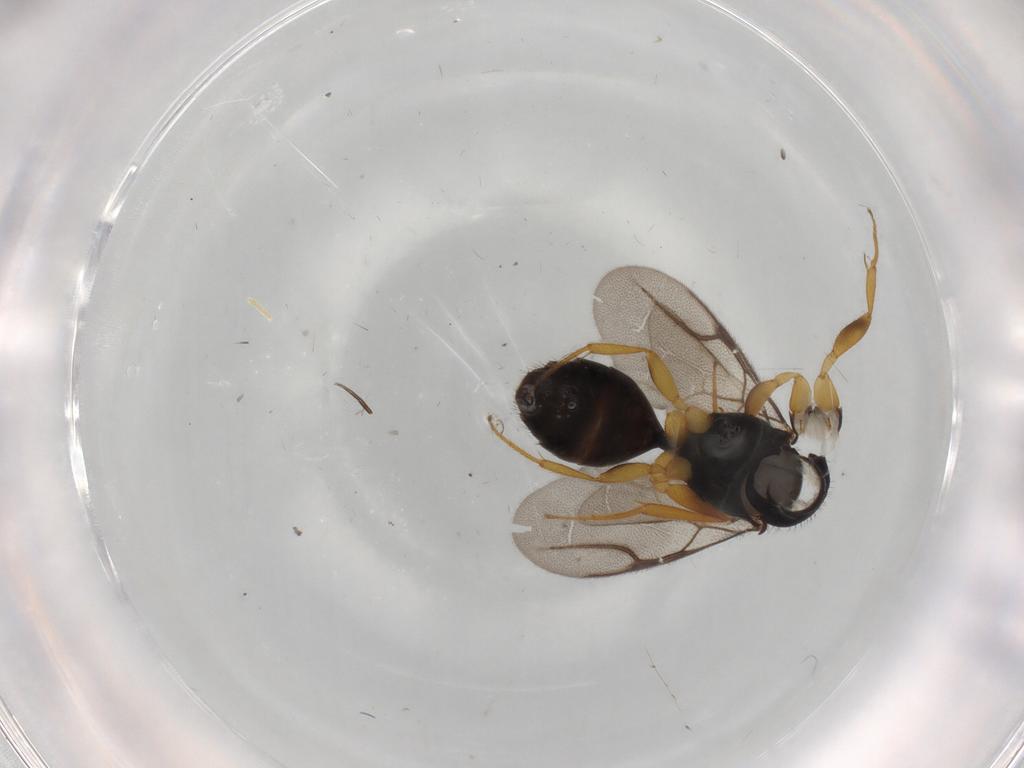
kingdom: Animalia
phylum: Arthropoda
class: Insecta
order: Hymenoptera
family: Bethylidae
